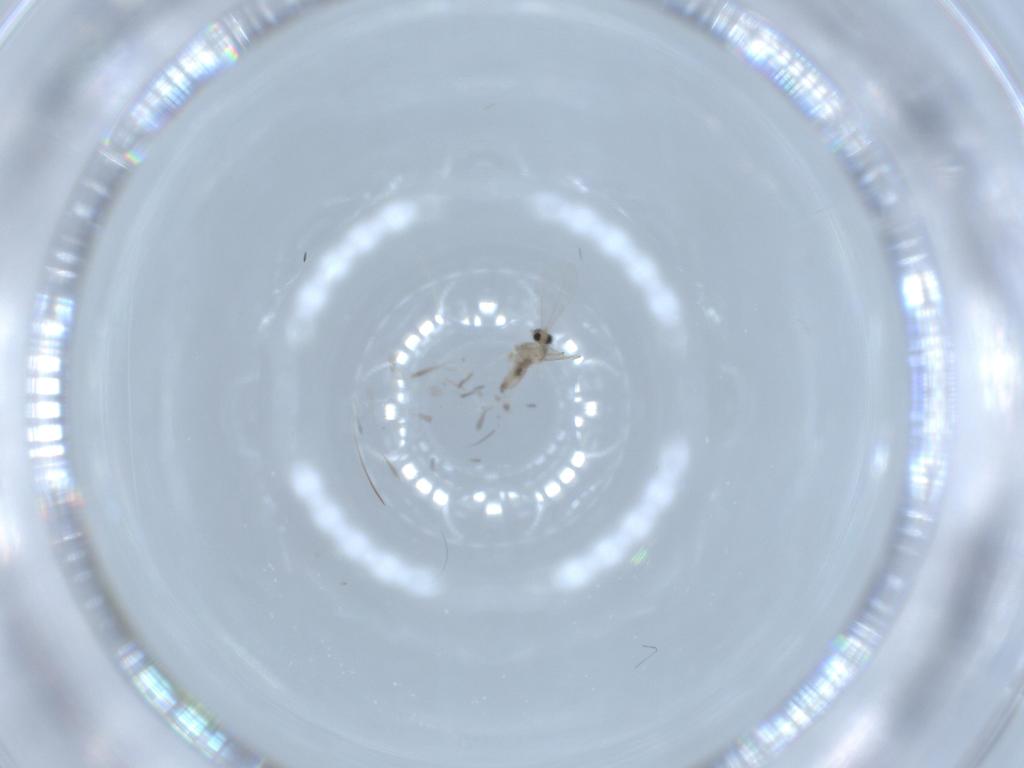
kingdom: Animalia
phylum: Arthropoda
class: Insecta
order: Diptera
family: Cecidomyiidae
